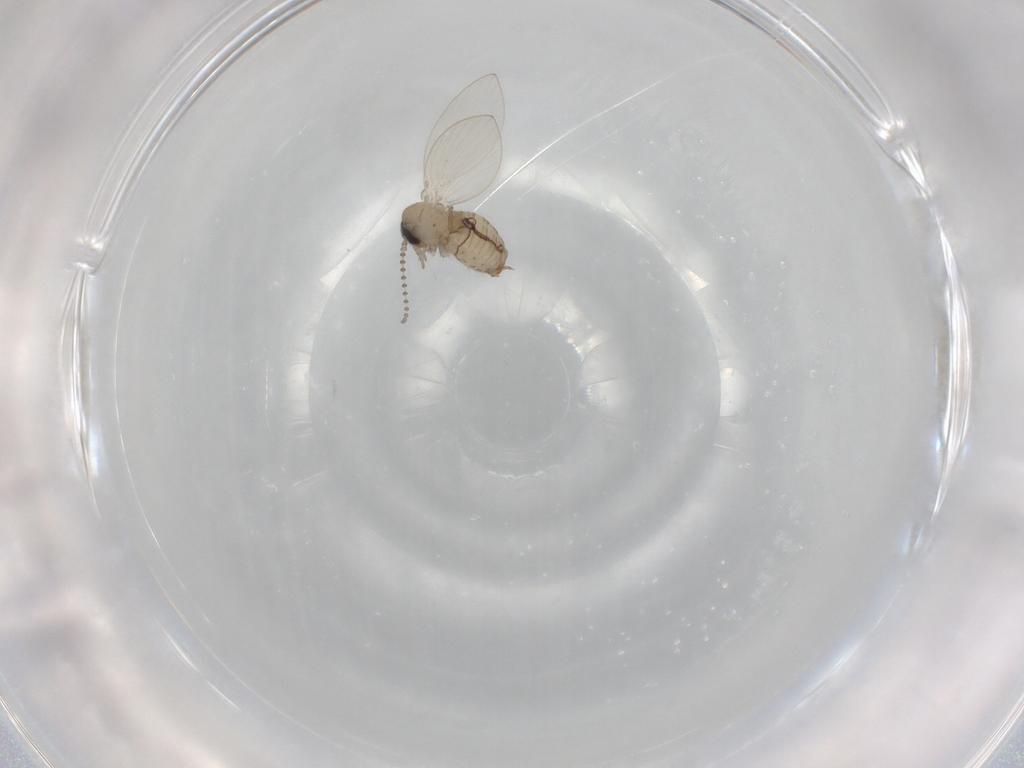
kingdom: Animalia
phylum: Arthropoda
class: Insecta
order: Diptera
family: Psychodidae
